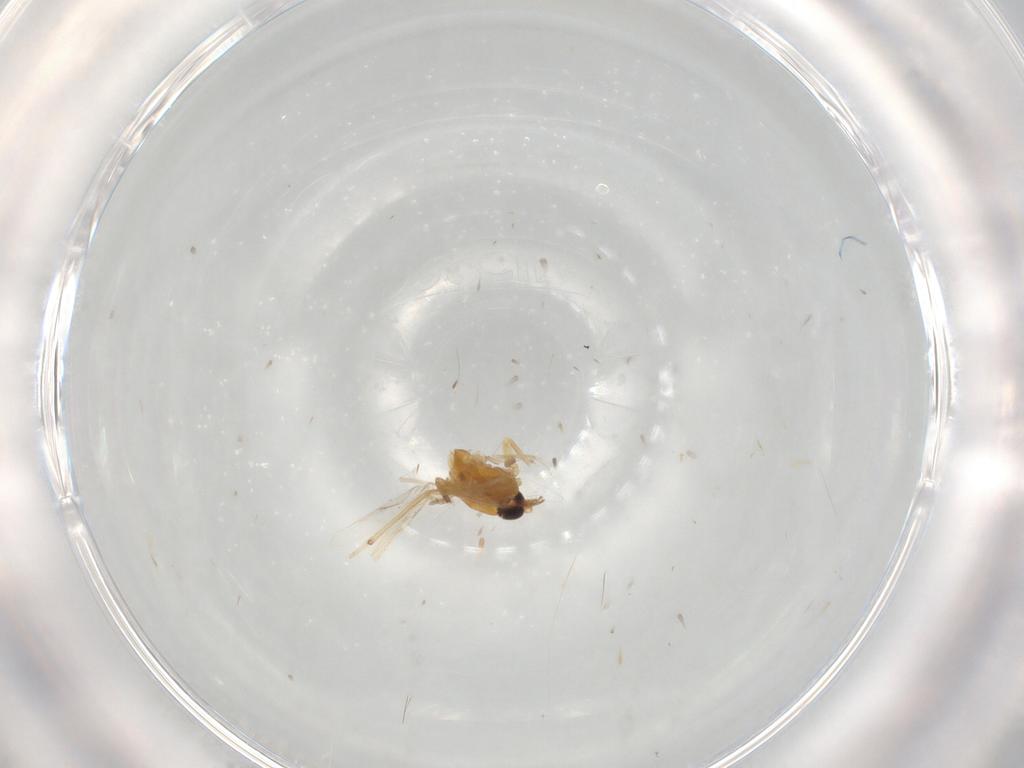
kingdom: Animalia
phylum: Arthropoda
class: Insecta
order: Diptera
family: Chironomidae
